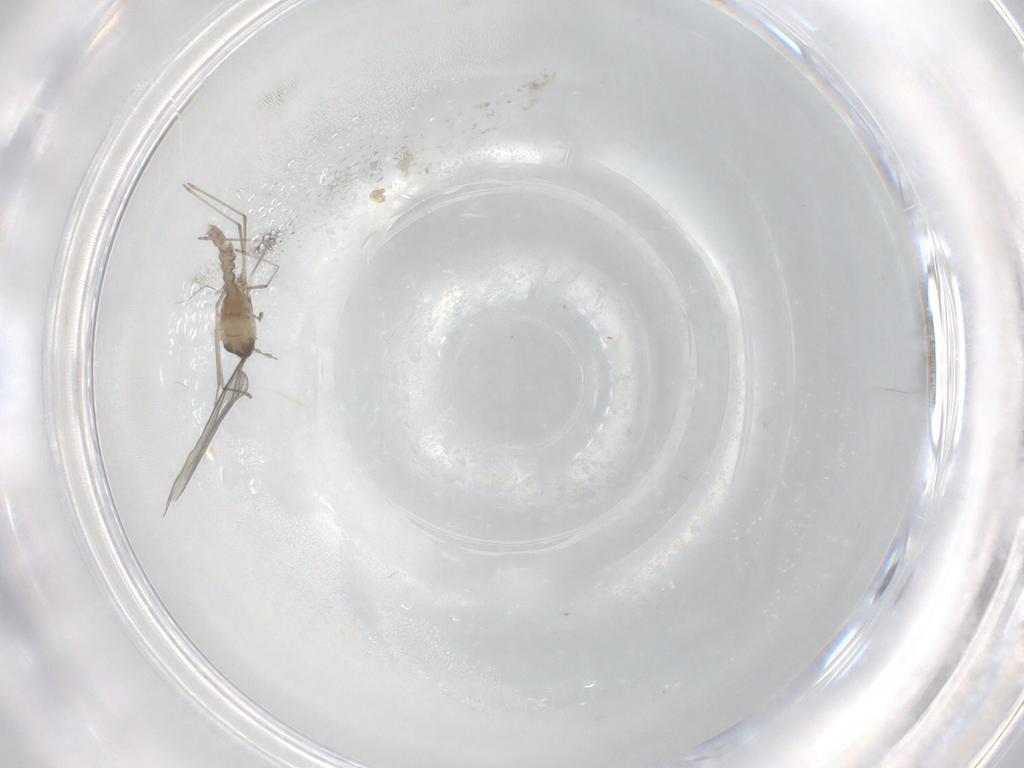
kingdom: Animalia
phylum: Arthropoda
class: Insecta
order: Diptera
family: Cecidomyiidae
